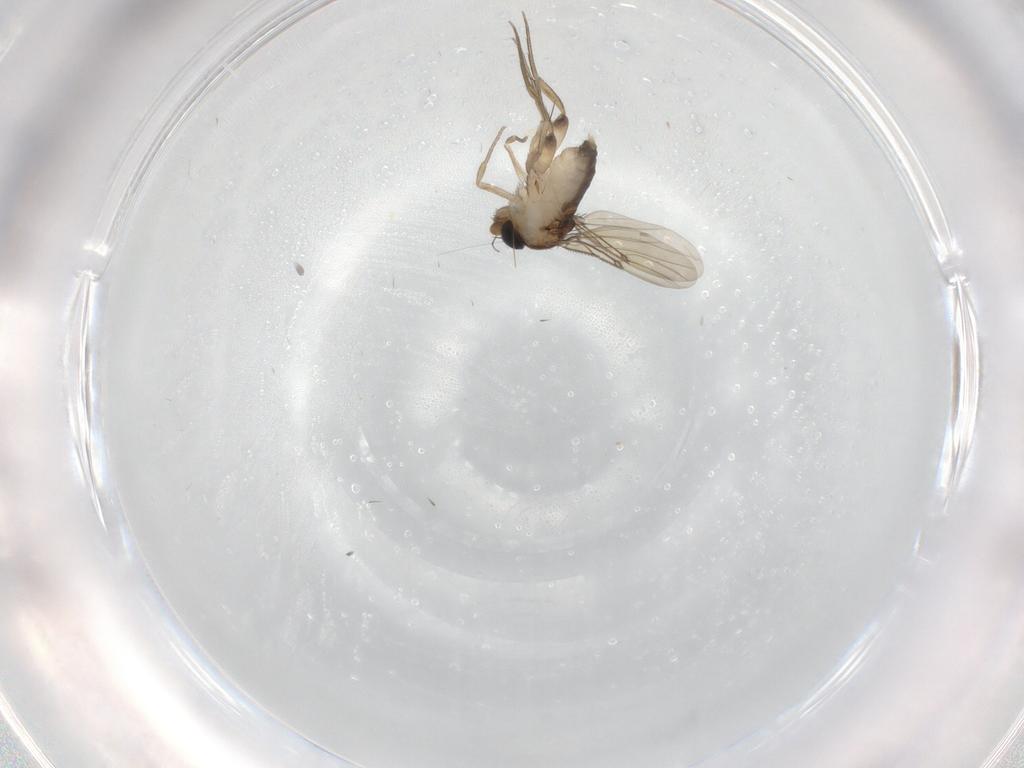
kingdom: Animalia
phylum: Arthropoda
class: Insecta
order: Diptera
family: Phoridae
